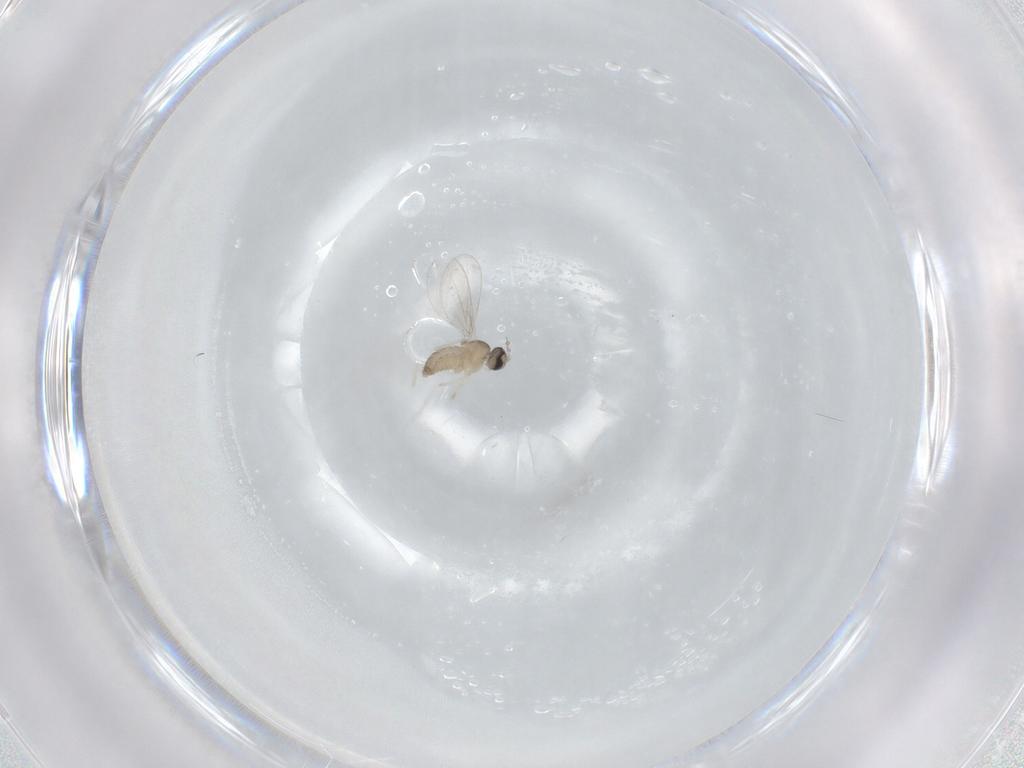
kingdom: Animalia
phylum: Arthropoda
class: Insecta
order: Diptera
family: Cecidomyiidae
